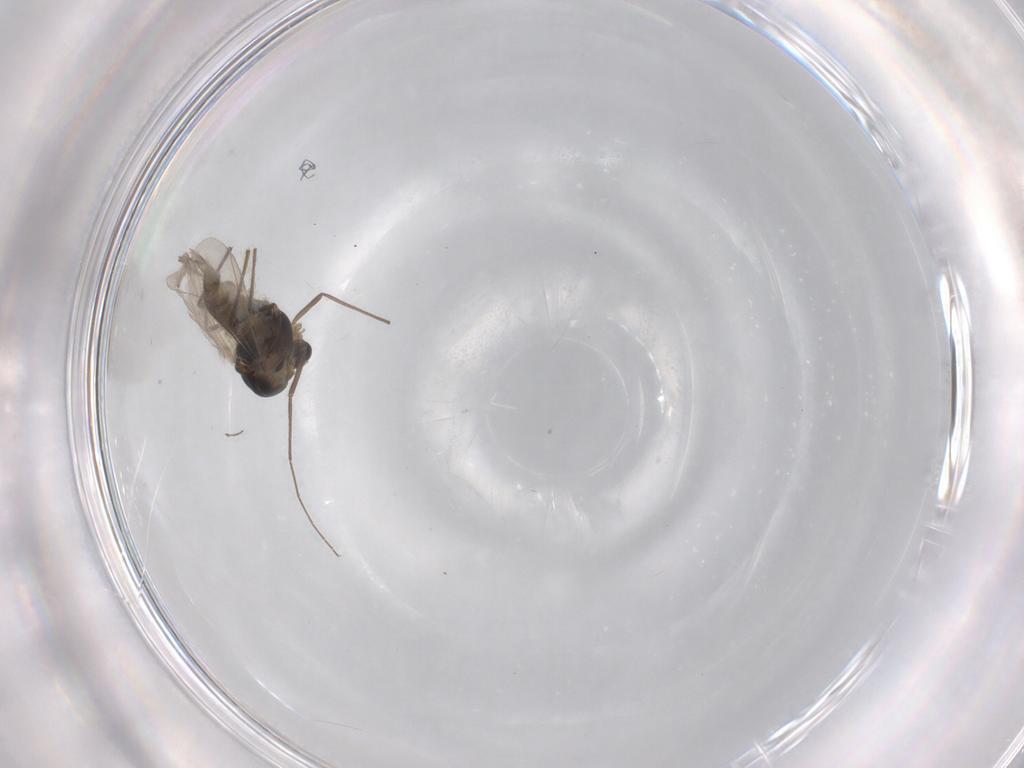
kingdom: Animalia
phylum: Arthropoda
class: Insecta
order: Diptera
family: Chironomidae
